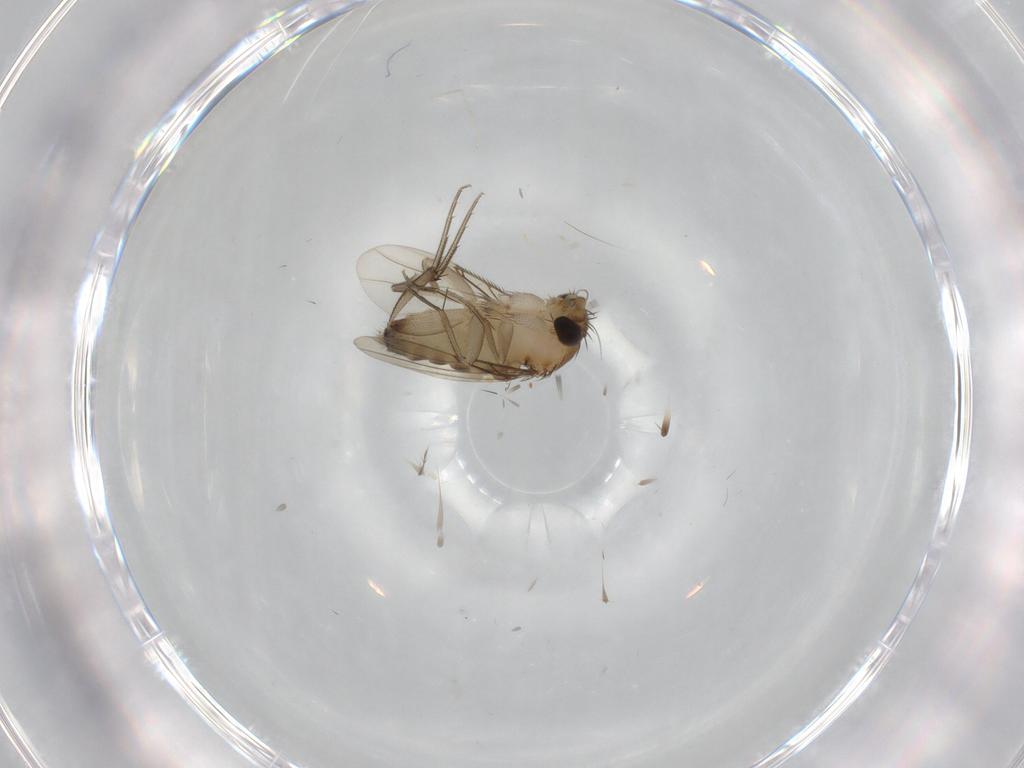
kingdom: Animalia
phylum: Arthropoda
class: Insecta
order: Diptera
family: Phoridae
